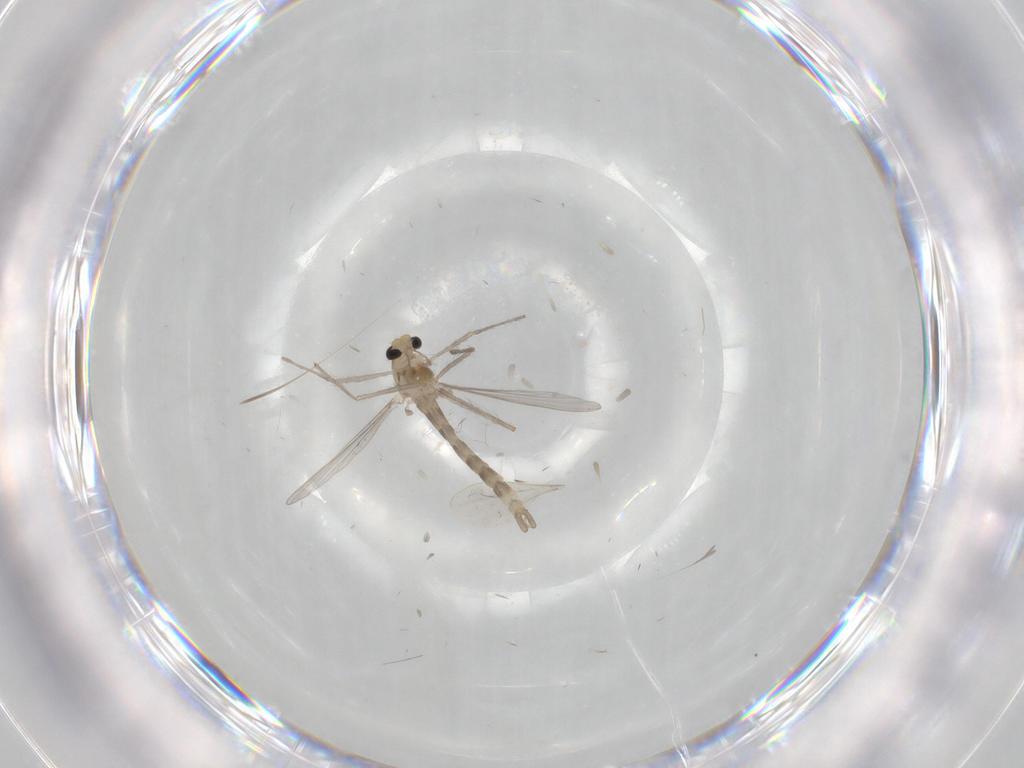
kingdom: Animalia
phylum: Arthropoda
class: Insecta
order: Diptera
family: Chironomidae
